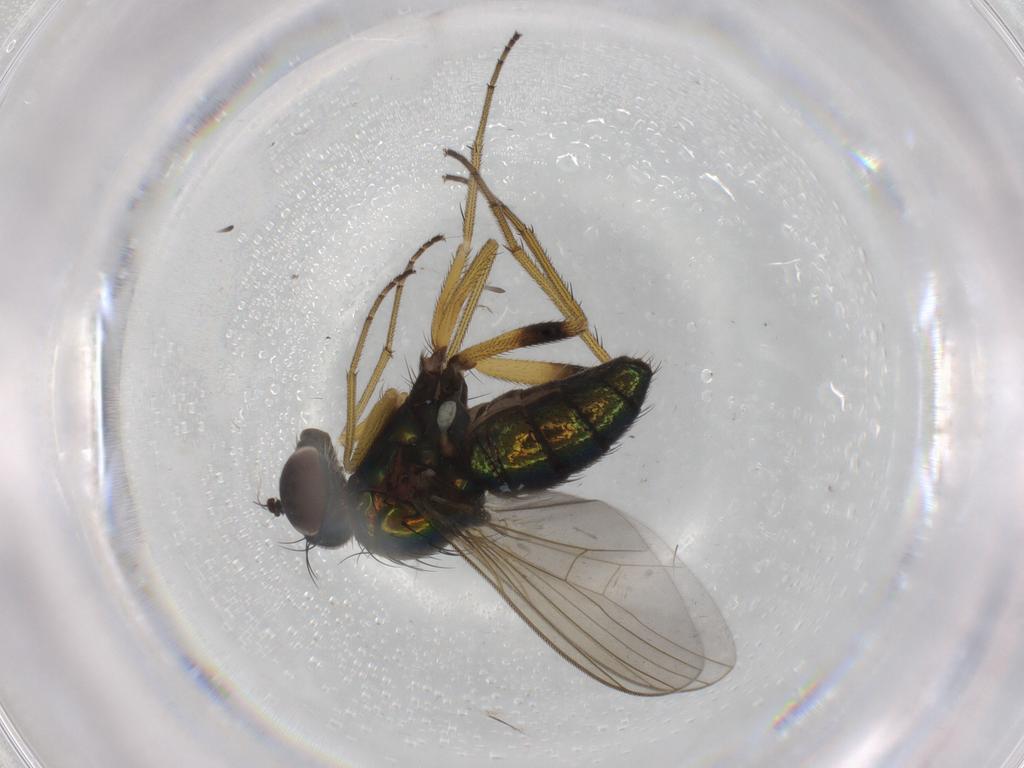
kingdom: Animalia
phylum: Arthropoda
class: Insecta
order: Diptera
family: Dolichopodidae
